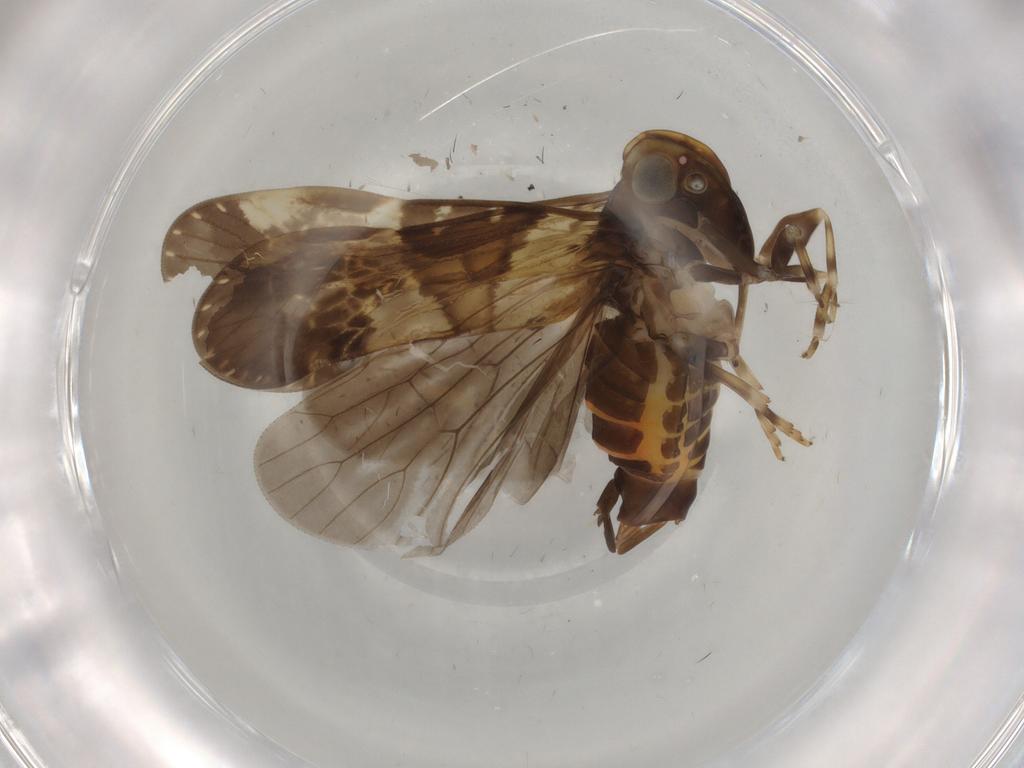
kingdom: Animalia
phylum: Arthropoda
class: Insecta
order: Hemiptera
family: Cixiidae
